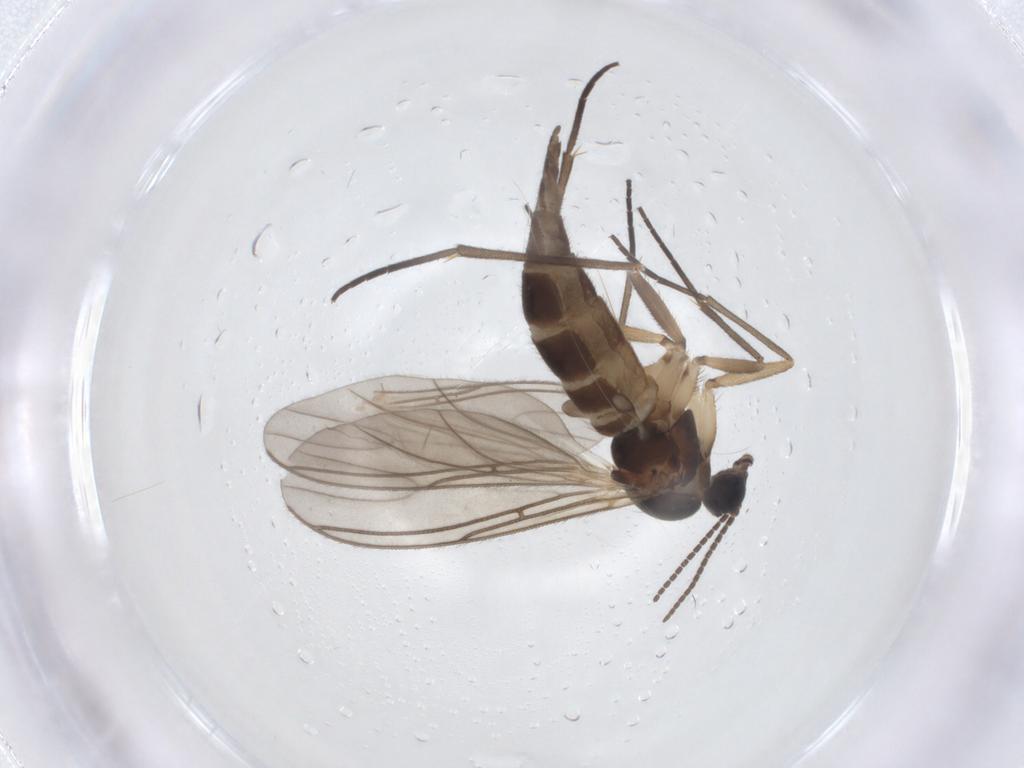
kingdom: Animalia
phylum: Arthropoda
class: Insecta
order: Diptera
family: Sciaridae
